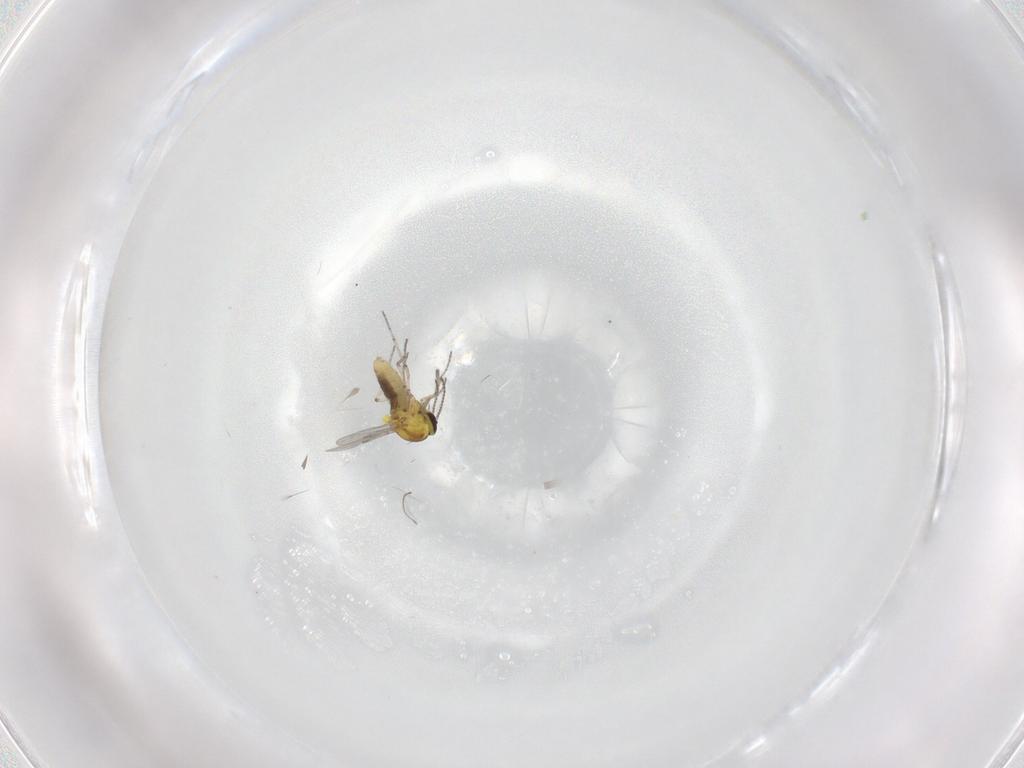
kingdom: Animalia
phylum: Arthropoda
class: Insecta
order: Diptera
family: Ceratopogonidae
